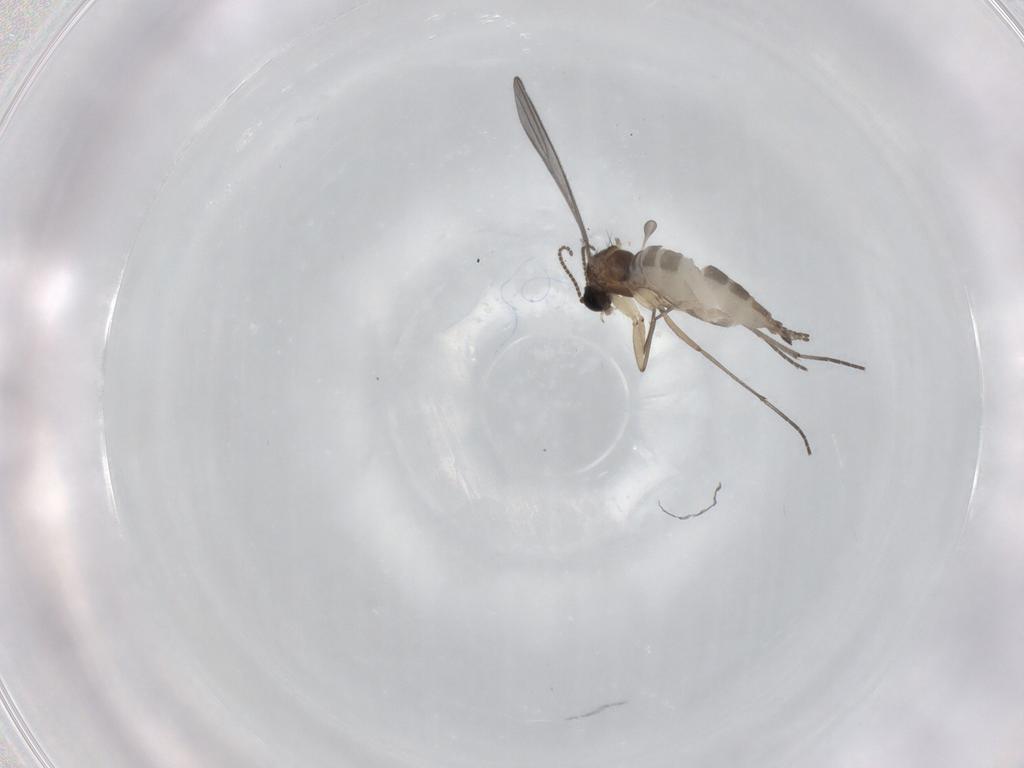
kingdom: Animalia
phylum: Arthropoda
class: Insecta
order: Diptera
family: Sciaridae
